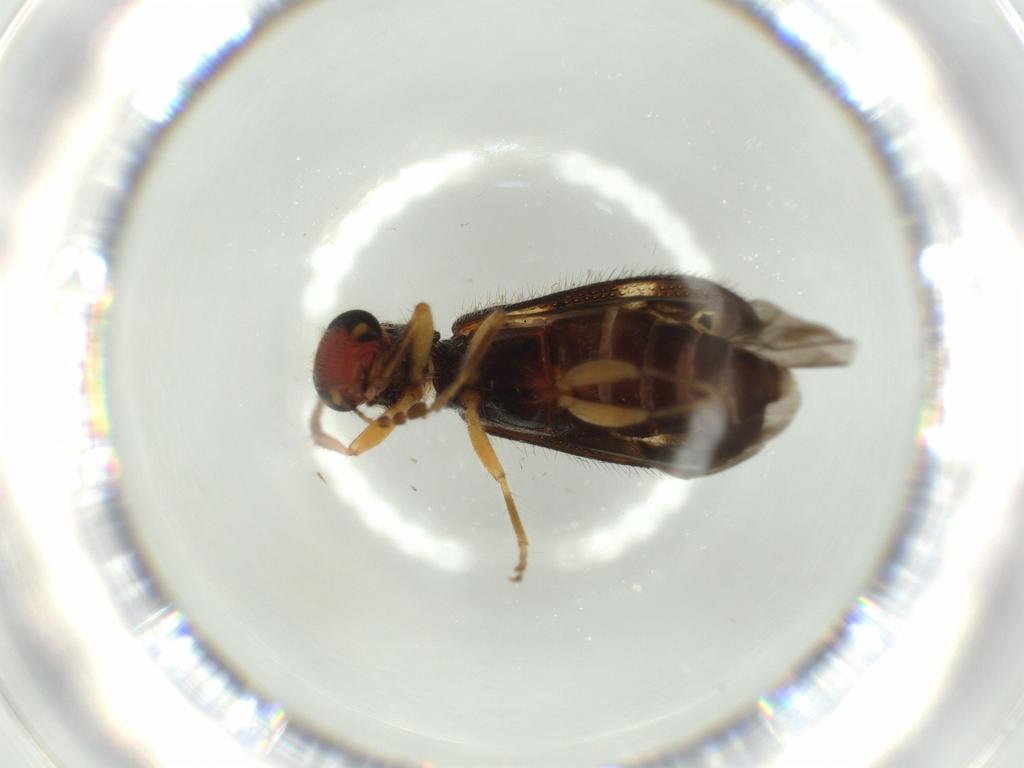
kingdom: Animalia
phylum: Arthropoda
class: Insecta
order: Coleoptera
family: Cleridae
